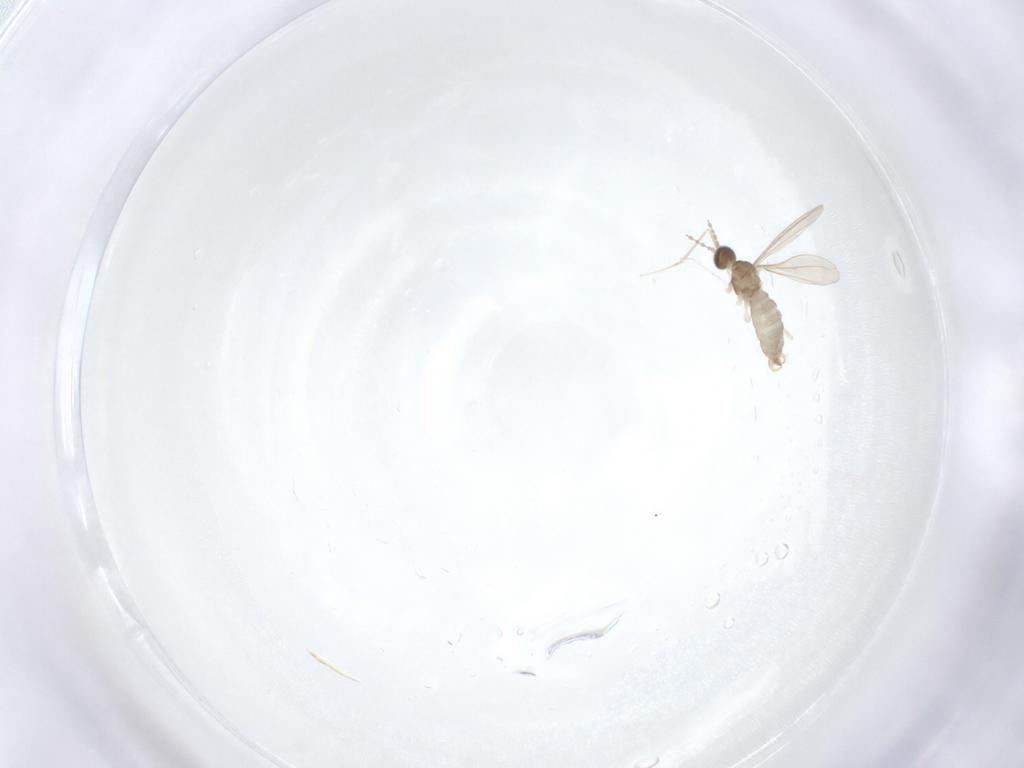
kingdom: Animalia
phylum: Arthropoda
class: Insecta
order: Diptera
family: Cecidomyiidae
